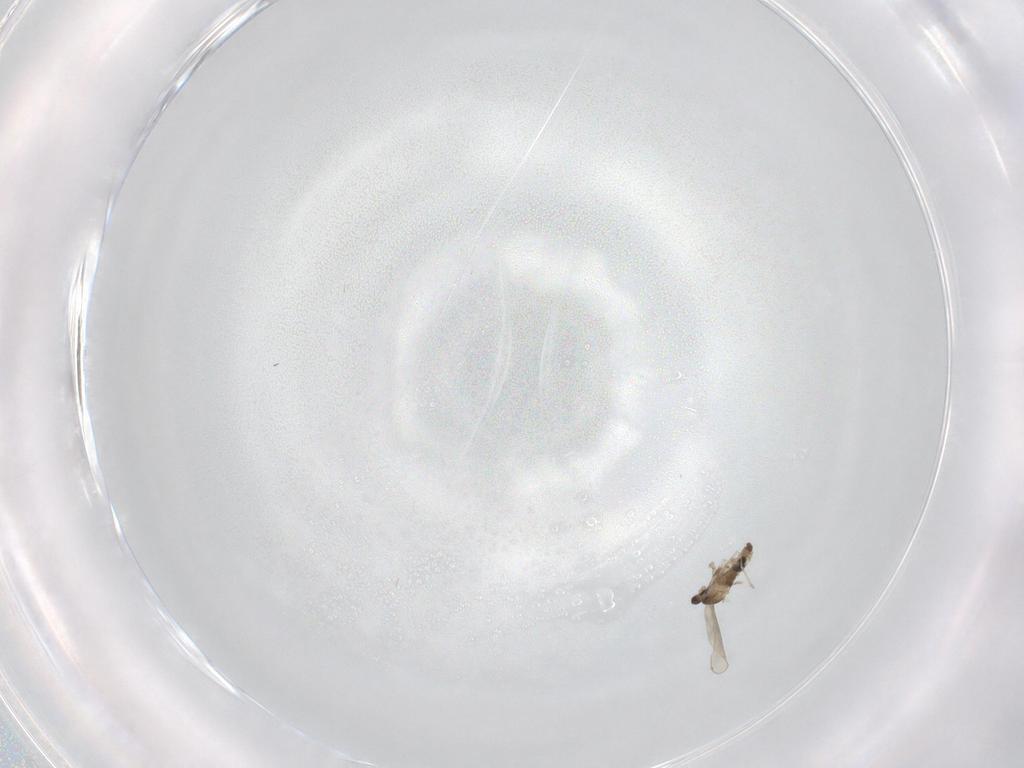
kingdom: Animalia
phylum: Arthropoda
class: Insecta
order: Diptera
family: Cecidomyiidae
